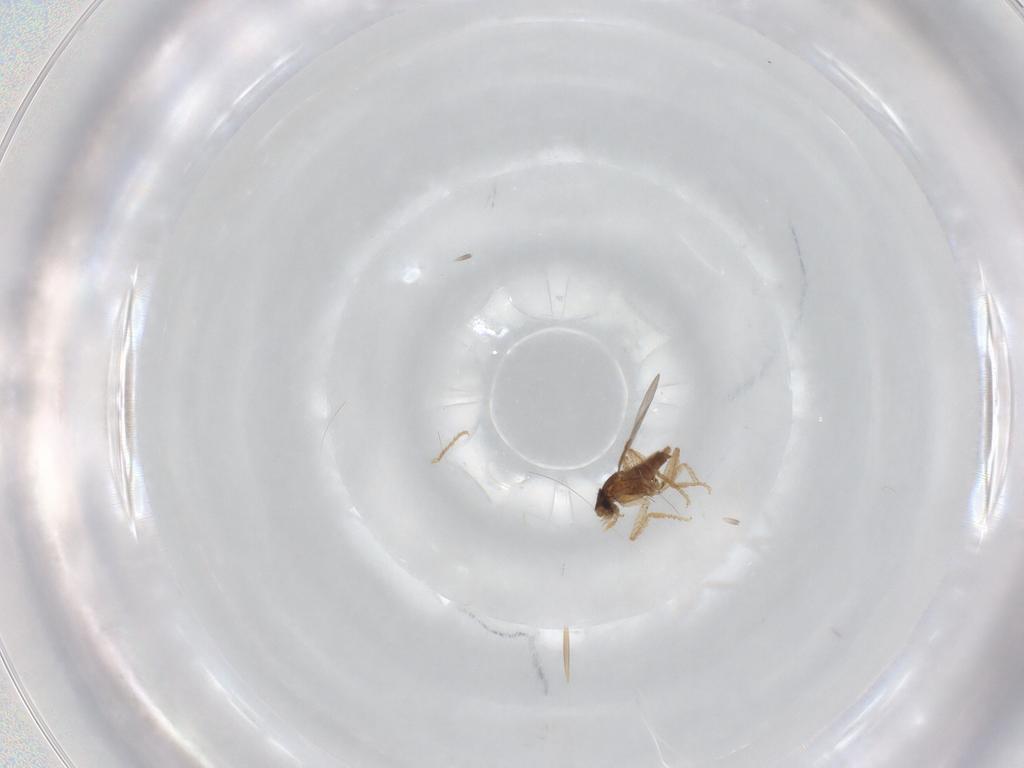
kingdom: Animalia
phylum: Arthropoda
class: Insecta
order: Diptera
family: Phoridae
